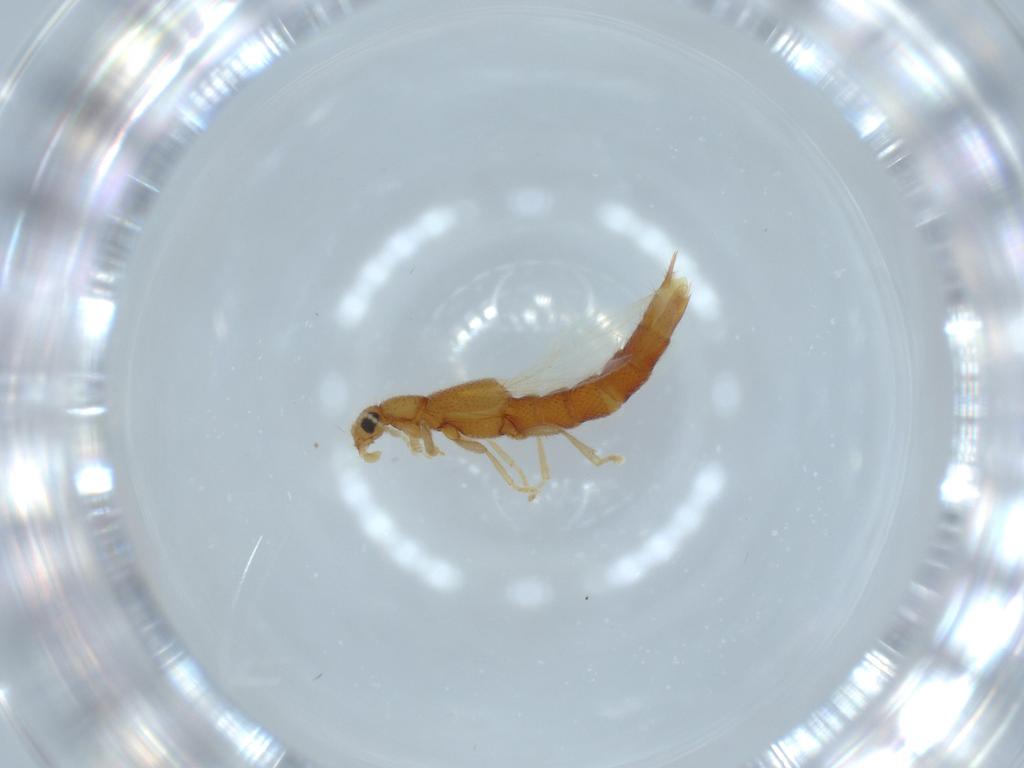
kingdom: Animalia
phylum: Arthropoda
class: Insecta
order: Coleoptera
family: Staphylinidae
